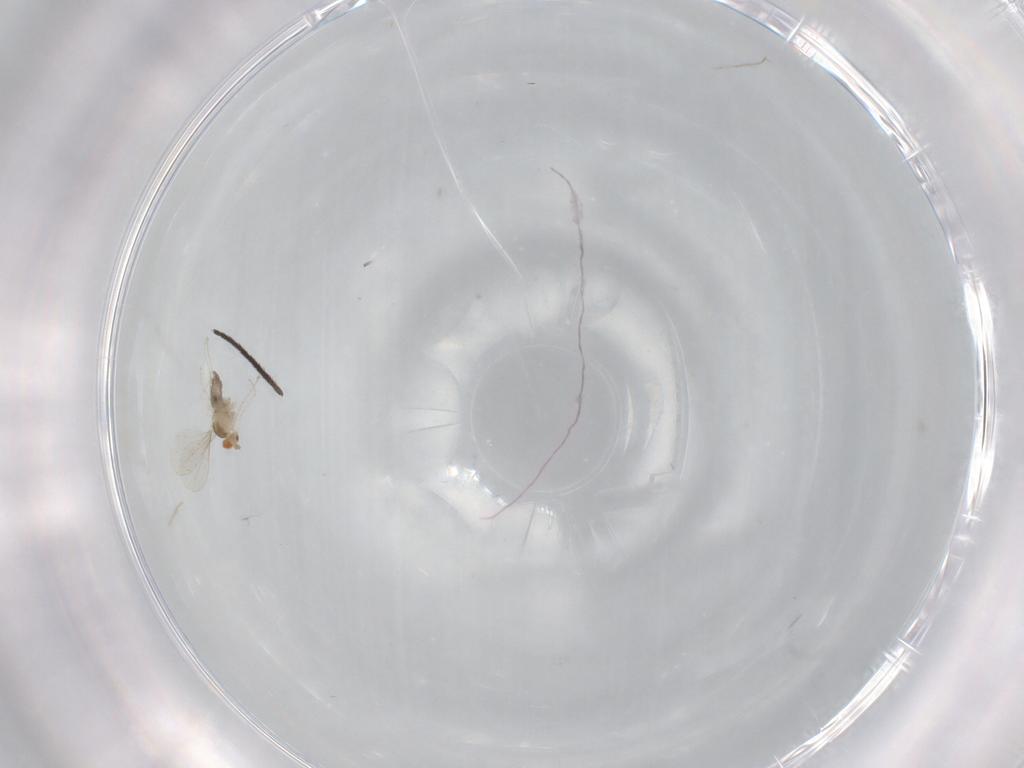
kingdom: Animalia
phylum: Arthropoda
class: Insecta
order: Diptera
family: Cecidomyiidae
